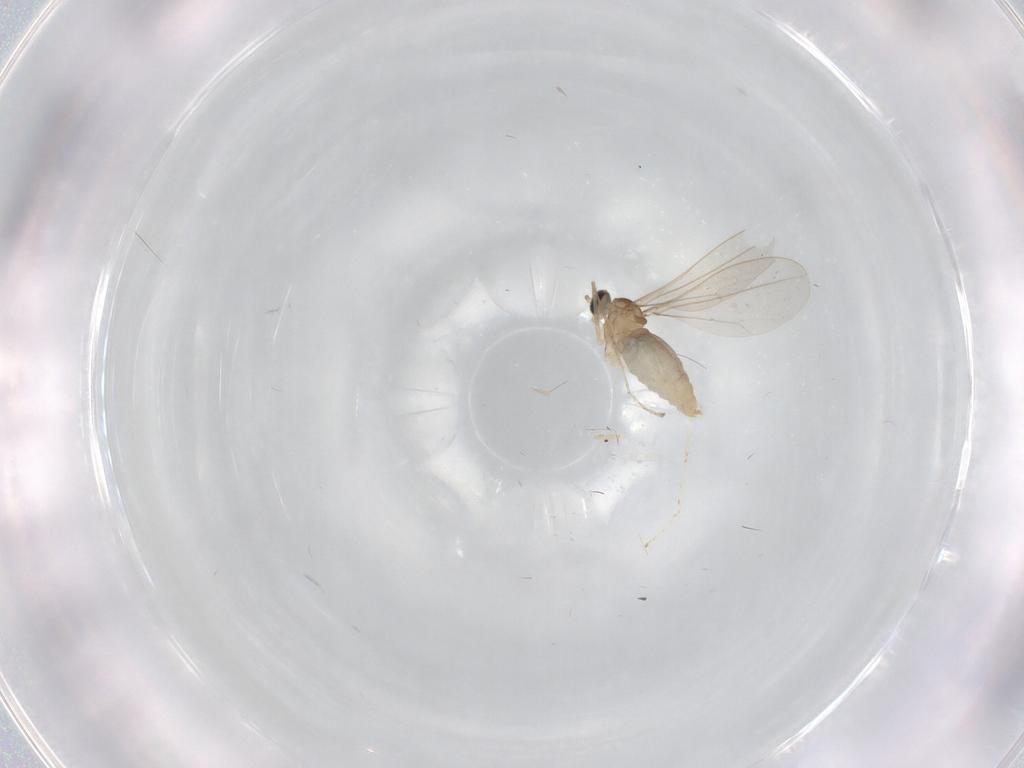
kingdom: Animalia
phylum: Arthropoda
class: Insecta
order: Diptera
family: Cecidomyiidae
